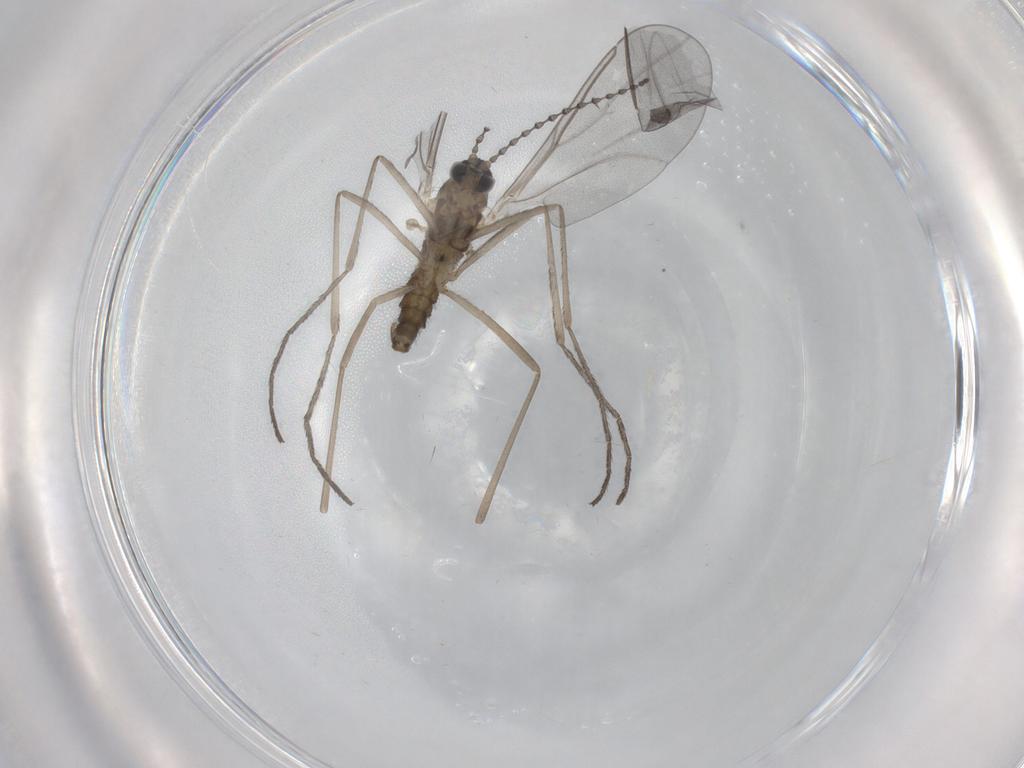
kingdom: Animalia
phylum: Arthropoda
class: Insecta
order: Diptera
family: Cecidomyiidae
